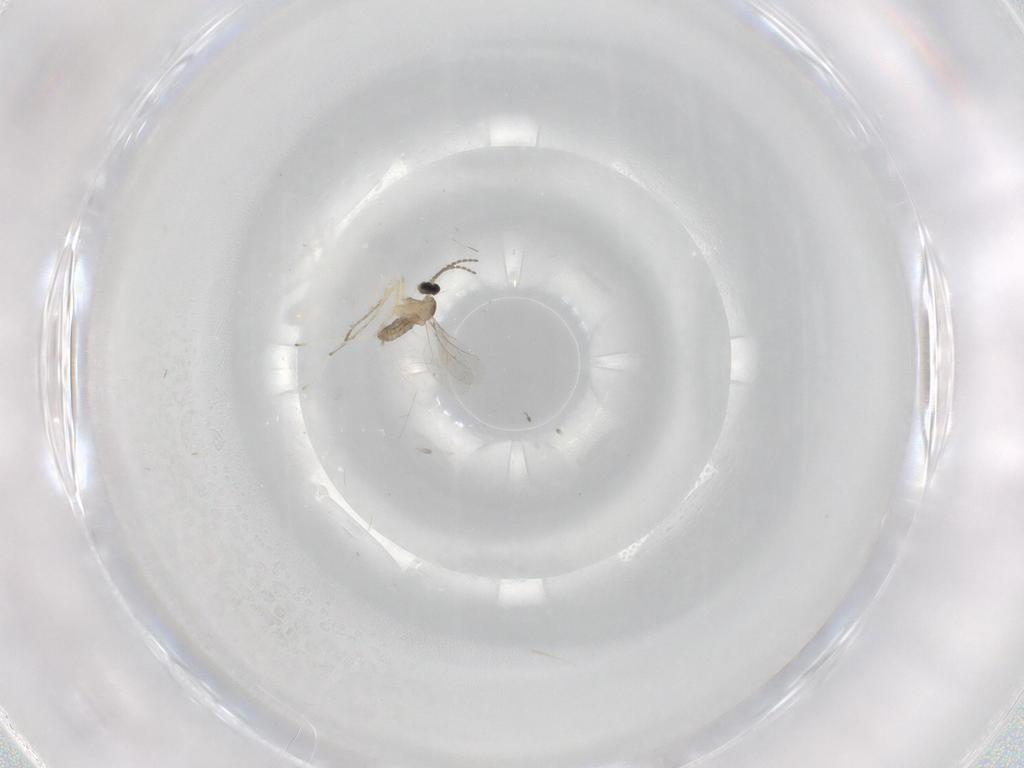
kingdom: Animalia
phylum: Arthropoda
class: Insecta
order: Diptera
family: Cecidomyiidae
